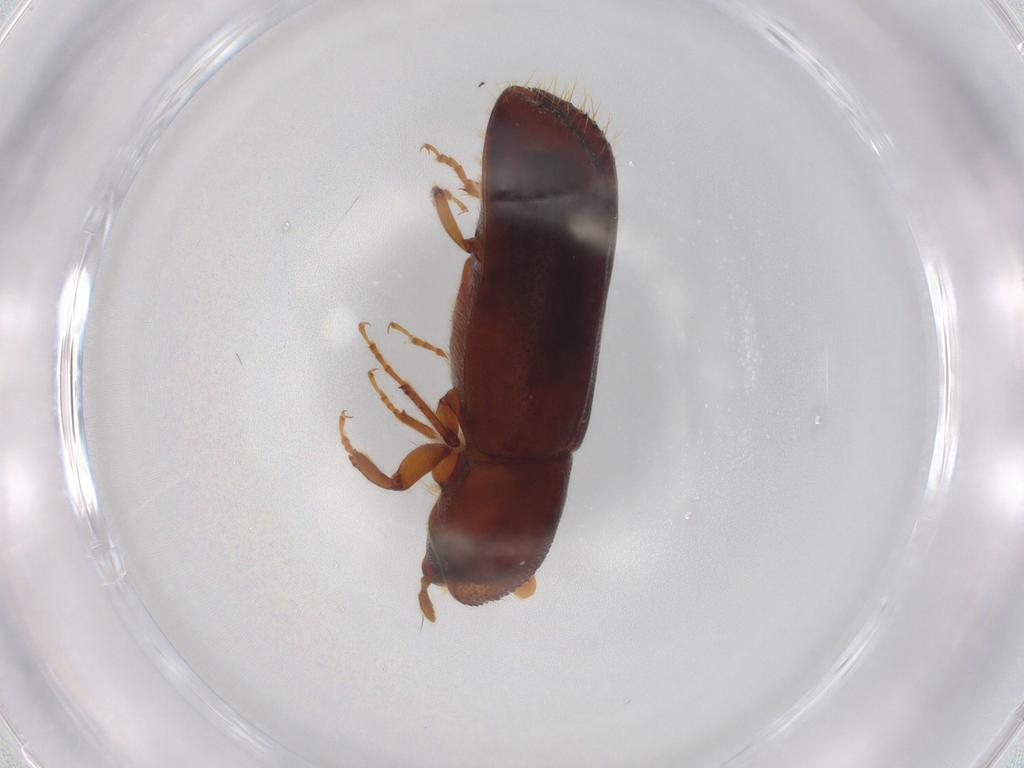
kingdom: Animalia
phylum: Arthropoda
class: Insecta
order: Coleoptera
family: Curculionidae
